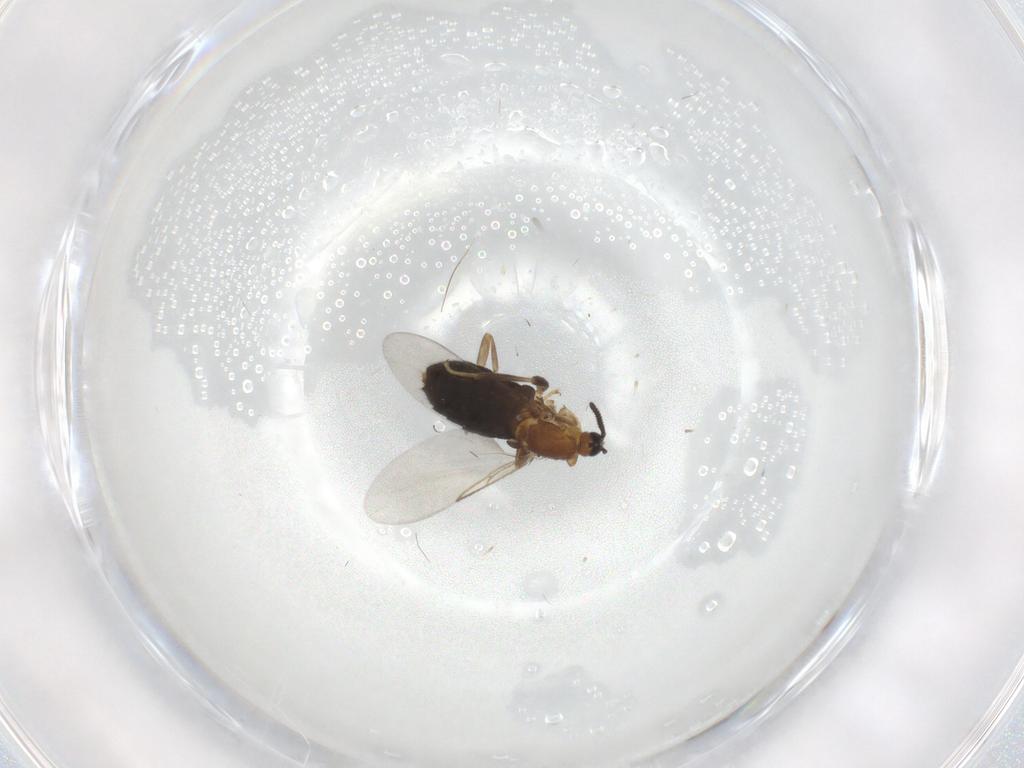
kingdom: Animalia
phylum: Arthropoda
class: Insecta
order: Diptera
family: Scatopsidae
